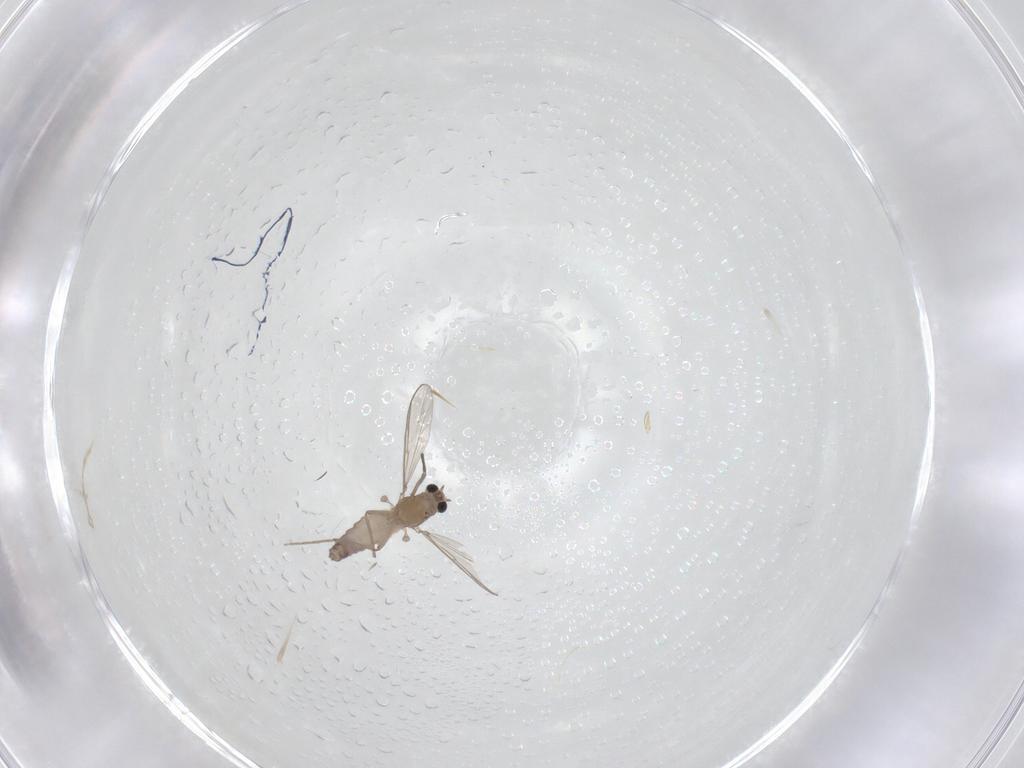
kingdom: Animalia
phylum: Arthropoda
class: Insecta
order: Diptera
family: Chironomidae
